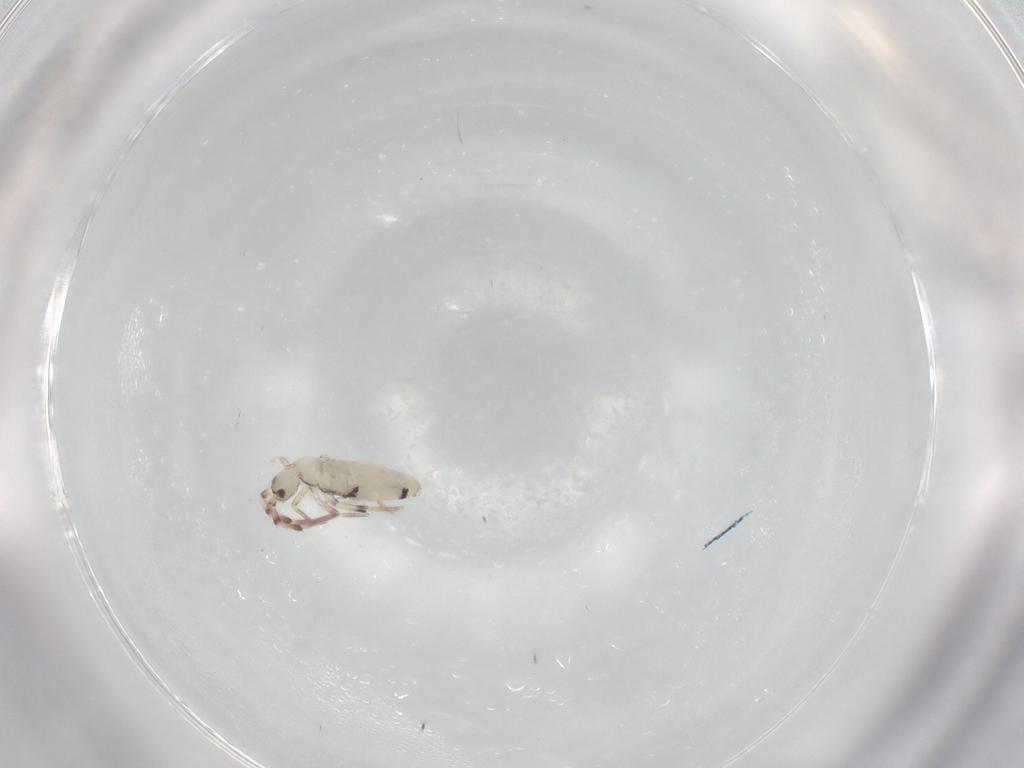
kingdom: Animalia
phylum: Arthropoda
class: Collembola
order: Entomobryomorpha
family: Entomobryidae
